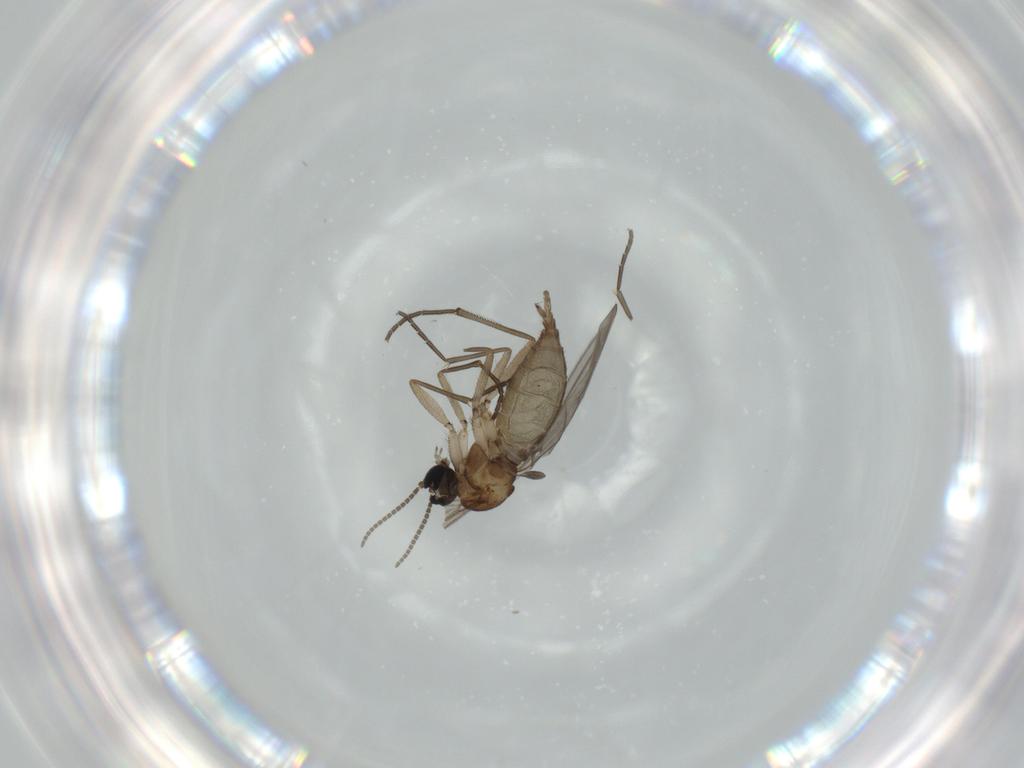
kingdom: Animalia
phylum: Arthropoda
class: Insecta
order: Diptera
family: Sciaridae
